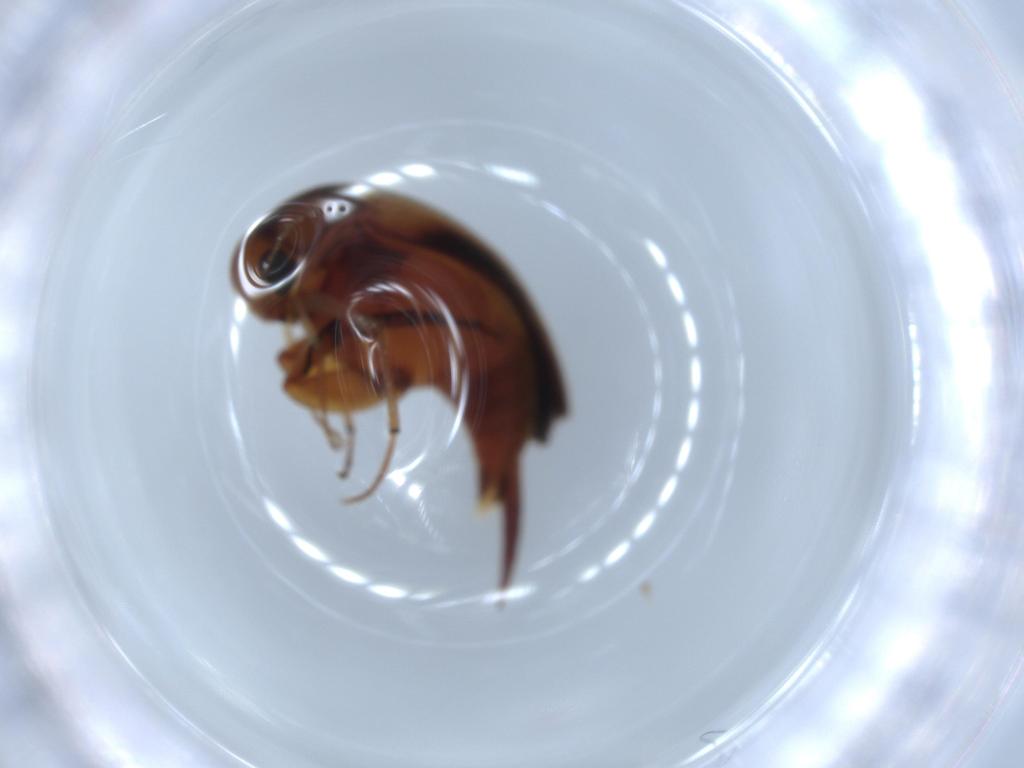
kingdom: Animalia
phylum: Arthropoda
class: Insecta
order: Coleoptera
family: Mordellidae
